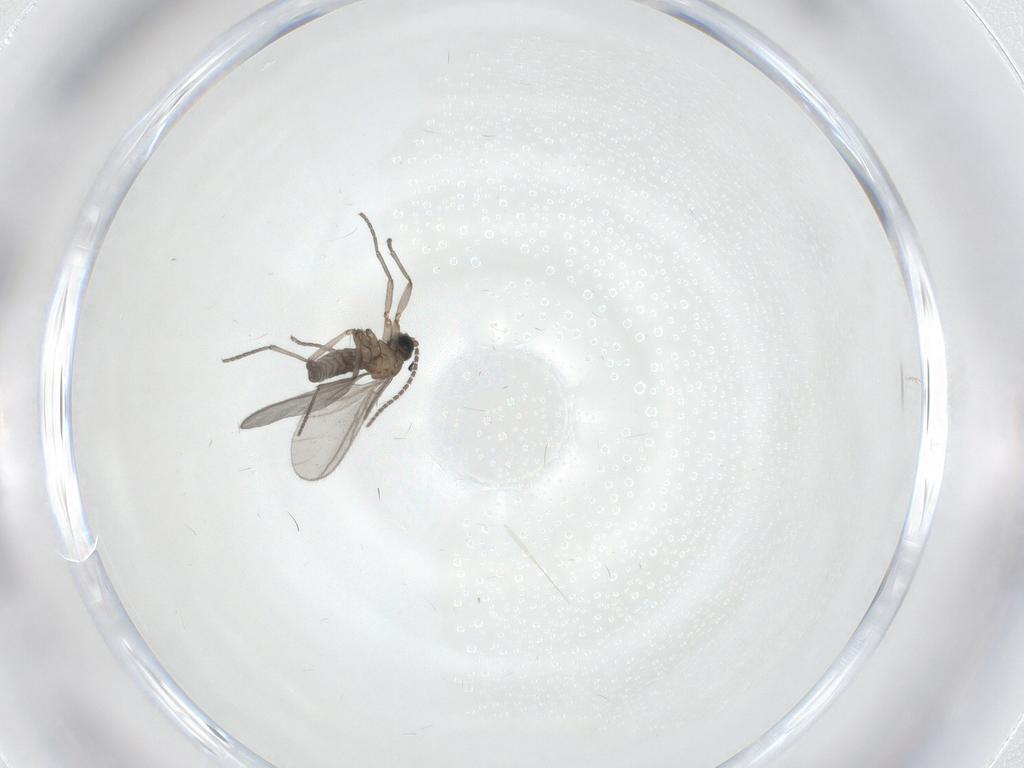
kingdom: Animalia
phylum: Arthropoda
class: Insecta
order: Diptera
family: Sciaridae
